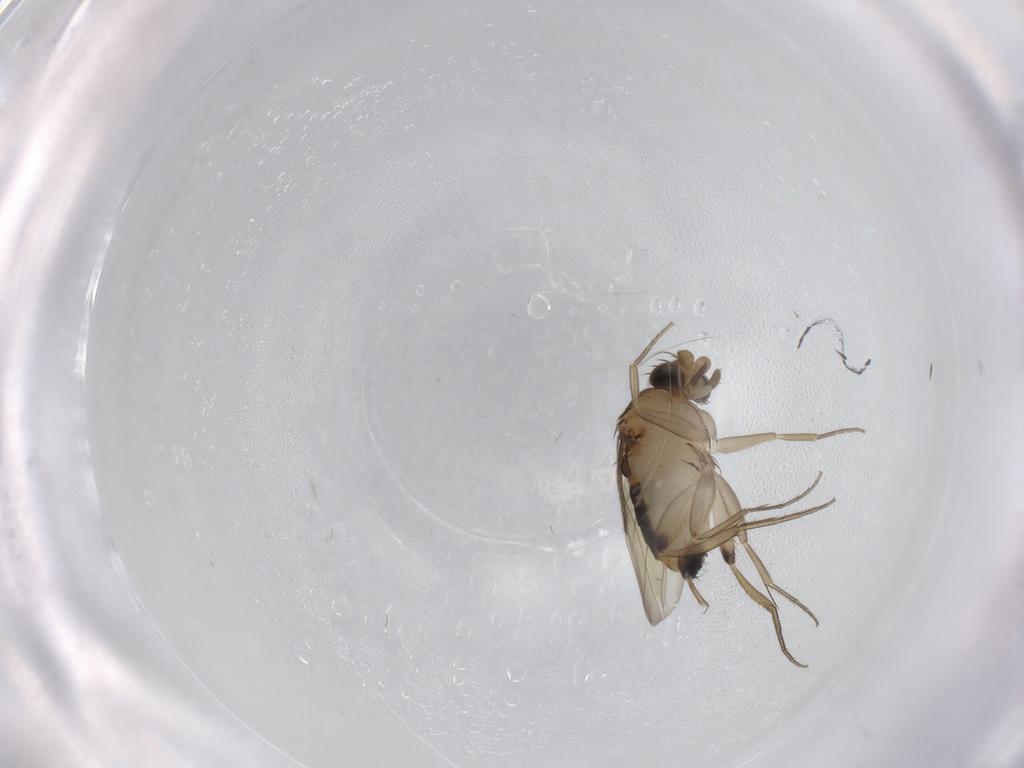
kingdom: Animalia
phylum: Arthropoda
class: Insecta
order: Diptera
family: Phoridae
